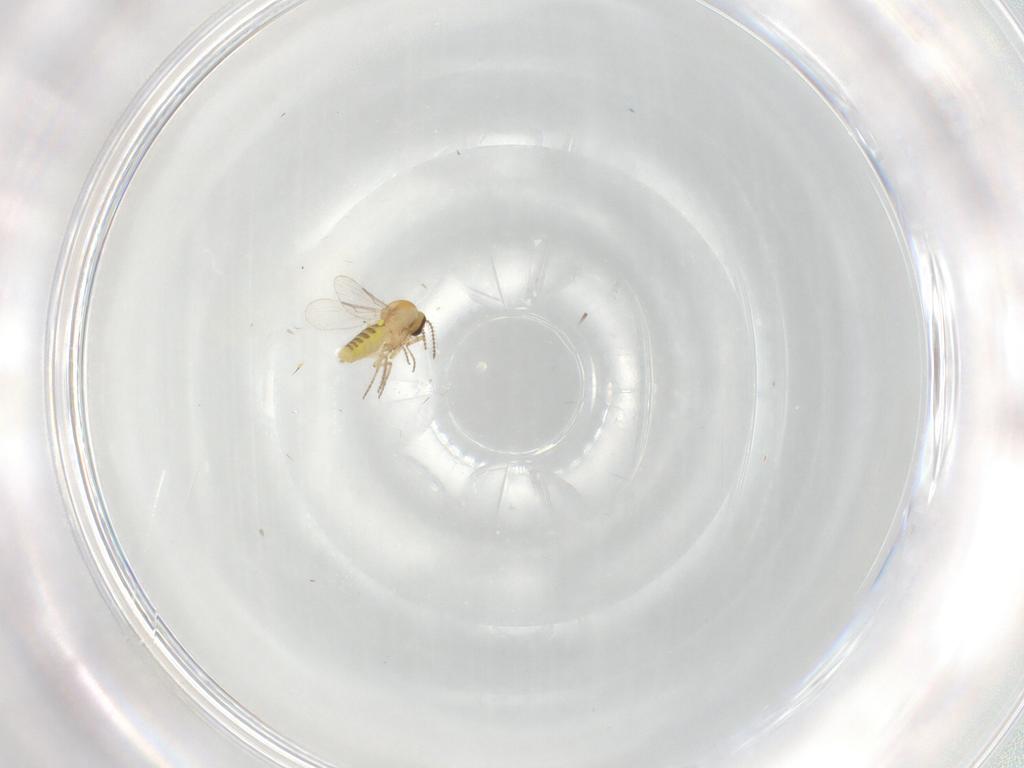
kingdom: Animalia
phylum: Arthropoda
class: Insecta
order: Diptera
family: Ceratopogonidae
